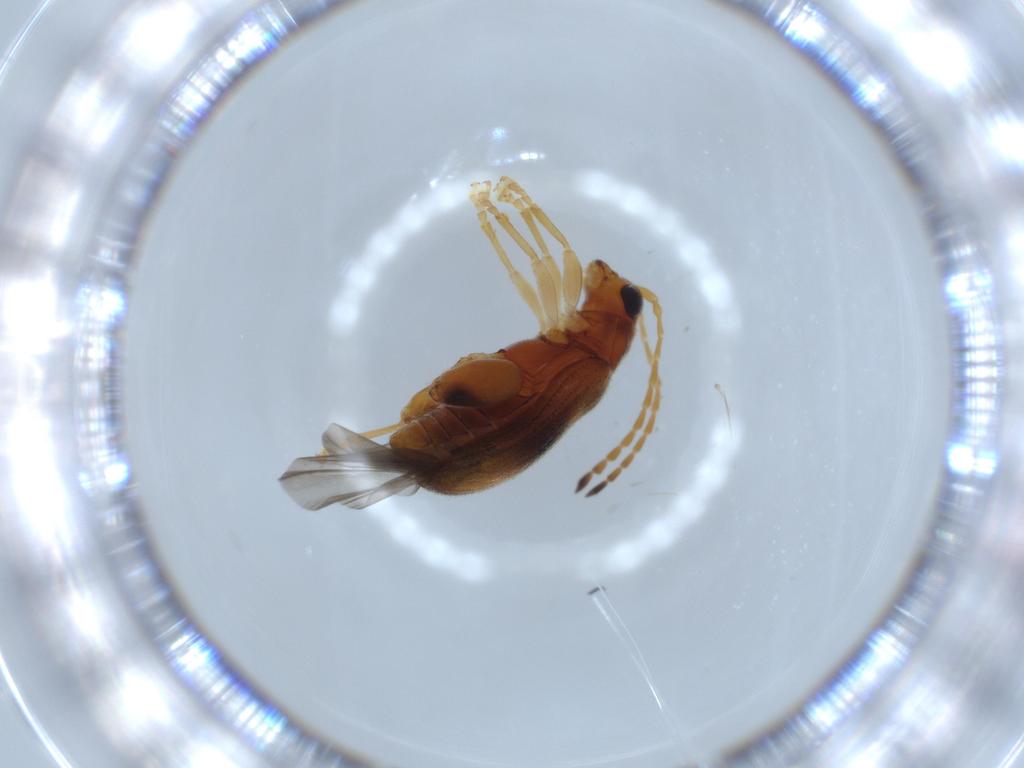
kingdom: Animalia
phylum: Arthropoda
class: Insecta
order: Coleoptera
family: Chrysomelidae
